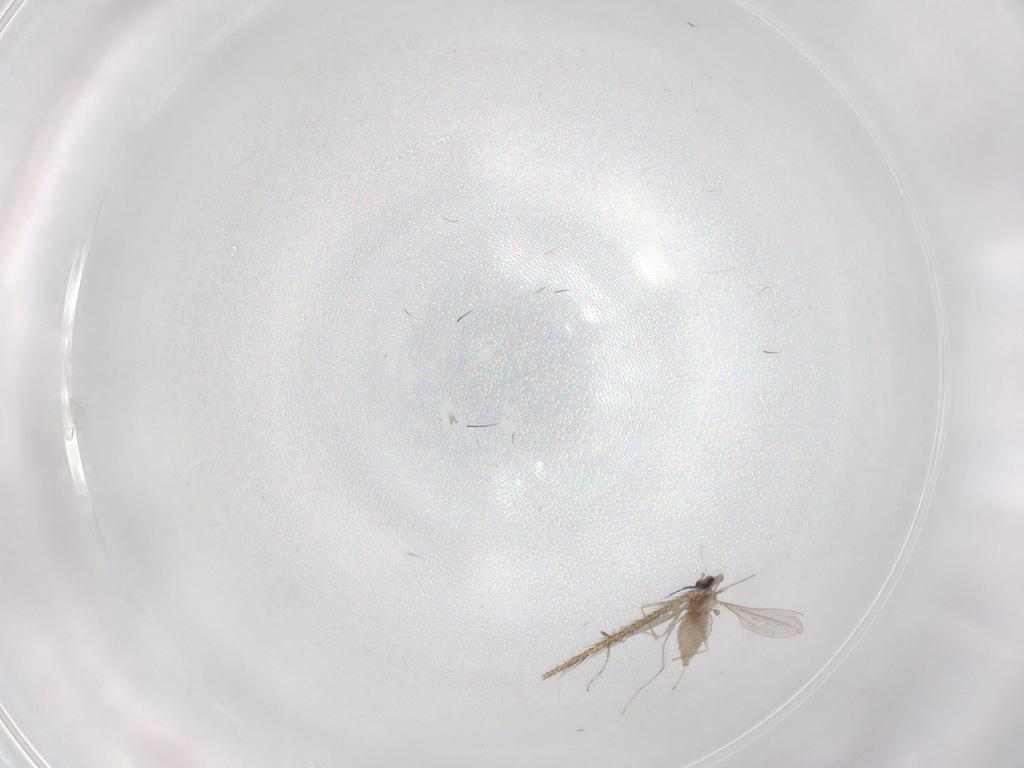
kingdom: Animalia
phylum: Arthropoda
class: Insecta
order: Diptera
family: Cecidomyiidae
